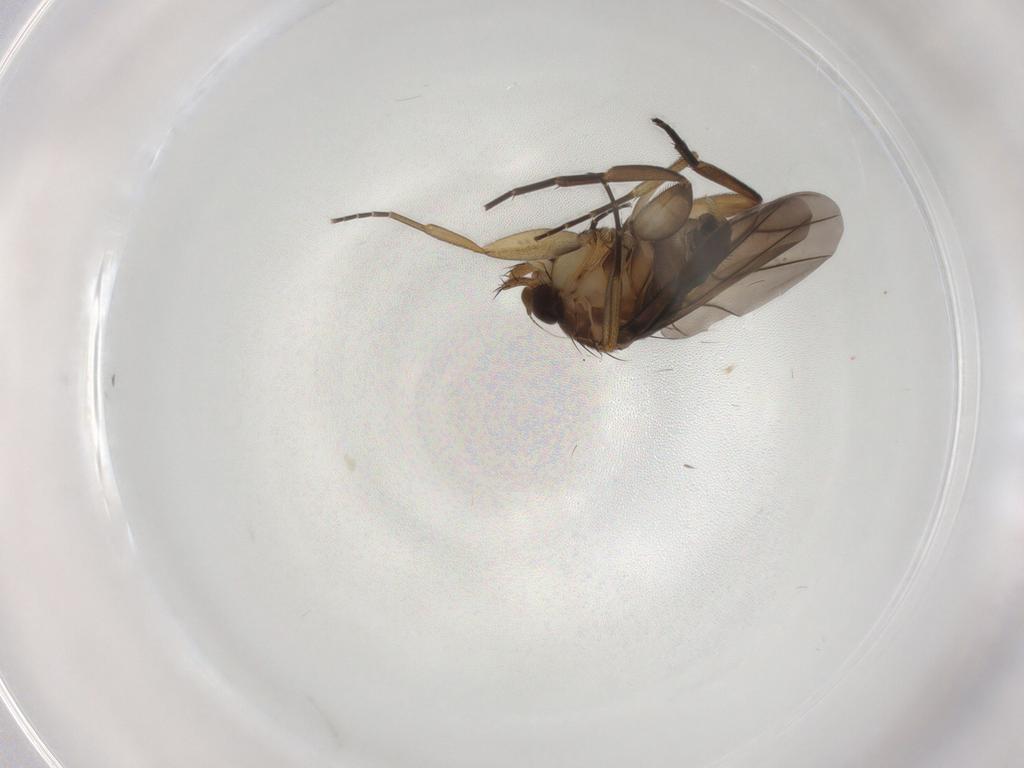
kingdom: Animalia
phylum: Arthropoda
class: Insecta
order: Diptera
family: Phoridae
